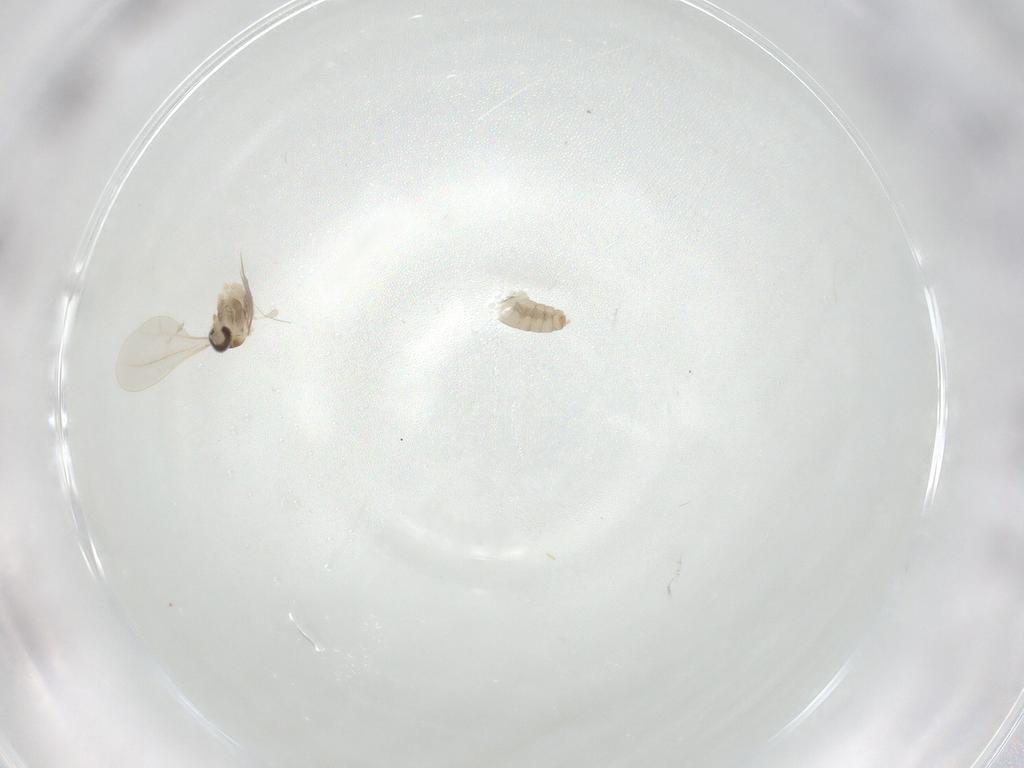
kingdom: Animalia
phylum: Arthropoda
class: Insecta
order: Diptera
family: Cecidomyiidae
